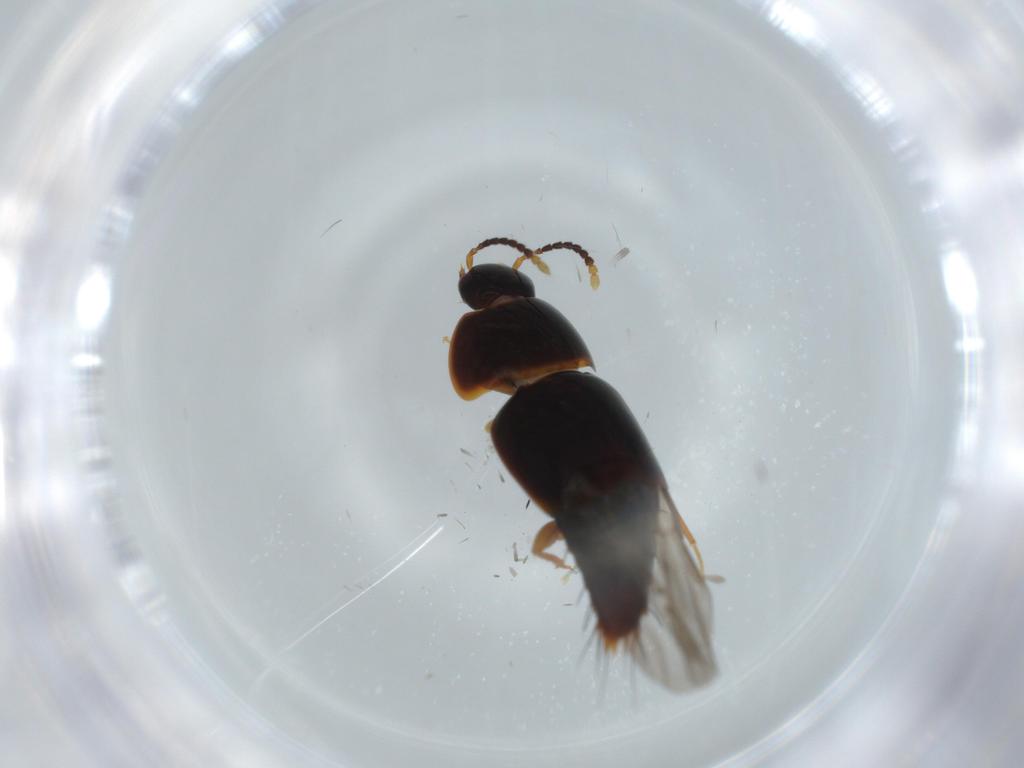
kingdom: Animalia
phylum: Arthropoda
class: Insecta
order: Coleoptera
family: Staphylinidae
